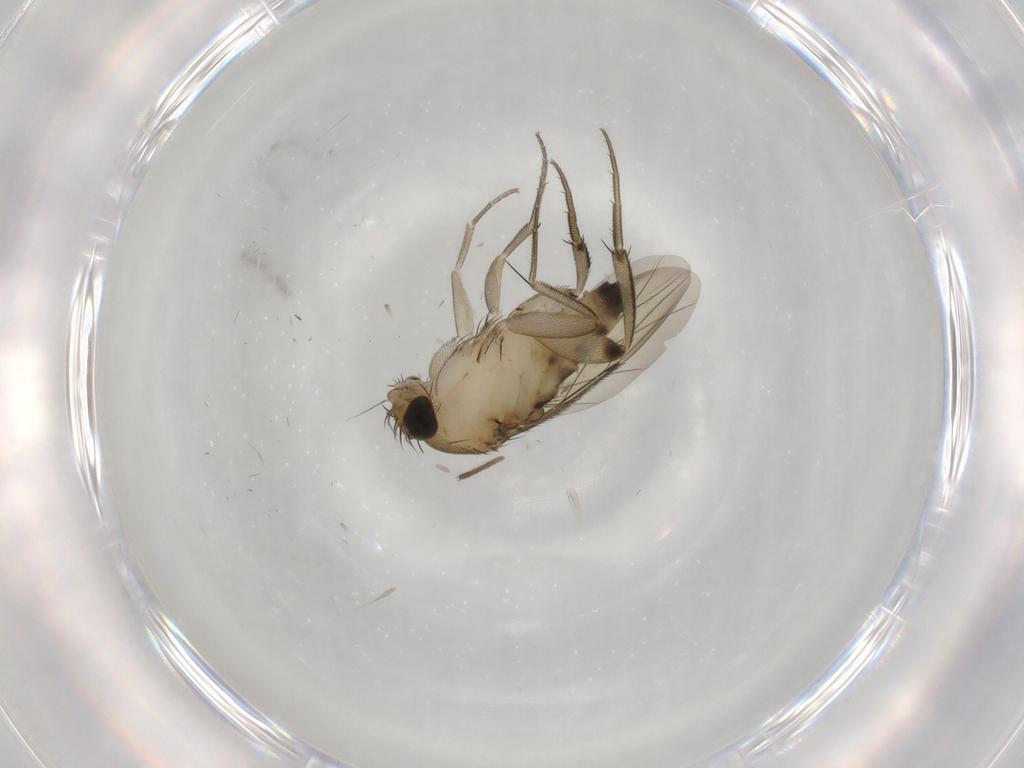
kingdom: Animalia
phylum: Arthropoda
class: Insecta
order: Diptera
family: Chironomidae
